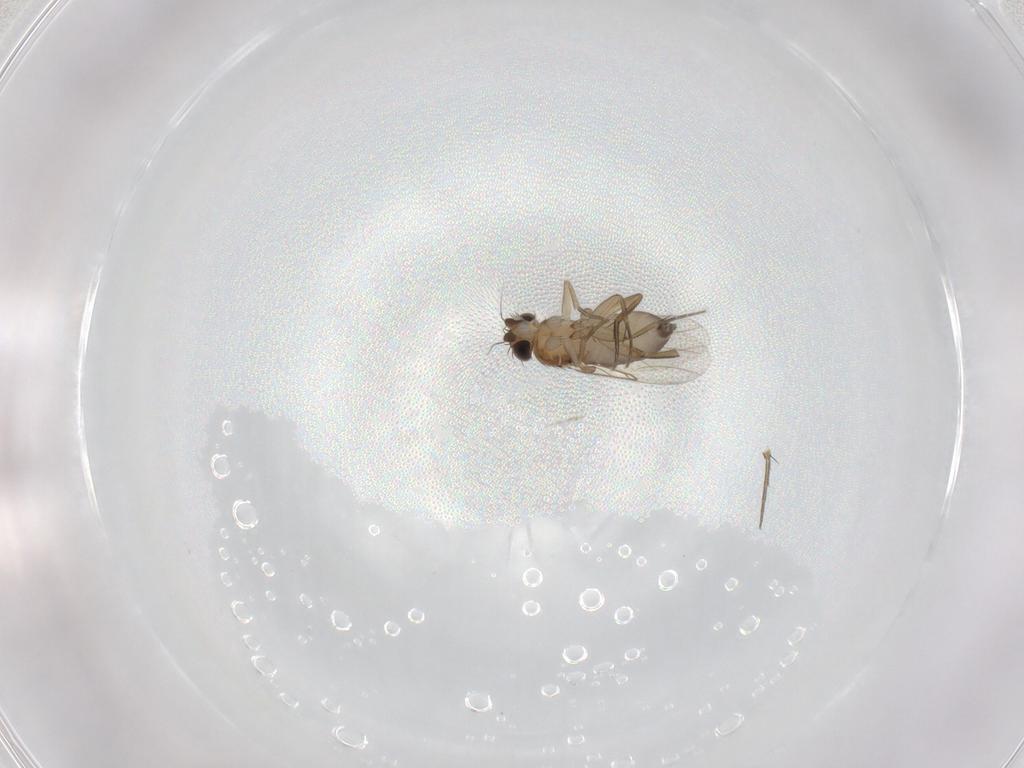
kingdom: Animalia
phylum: Arthropoda
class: Insecta
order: Diptera
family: Phoridae
